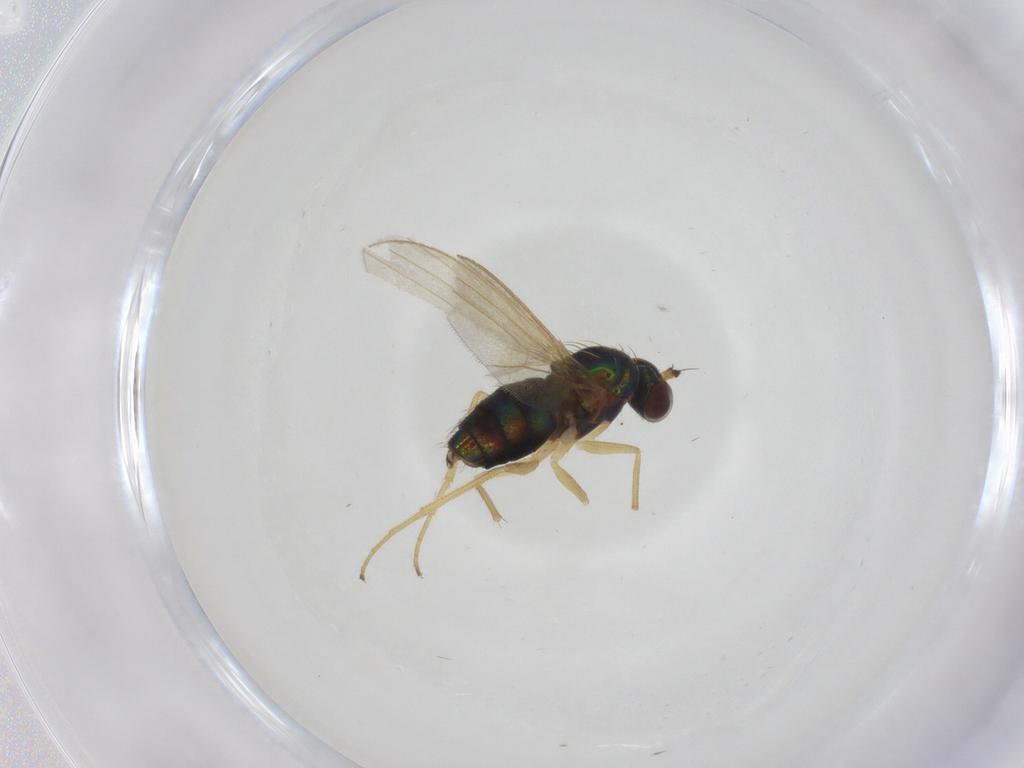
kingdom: Animalia
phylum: Arthropoda
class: Insecta
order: Diptera
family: Dolichopodidae
